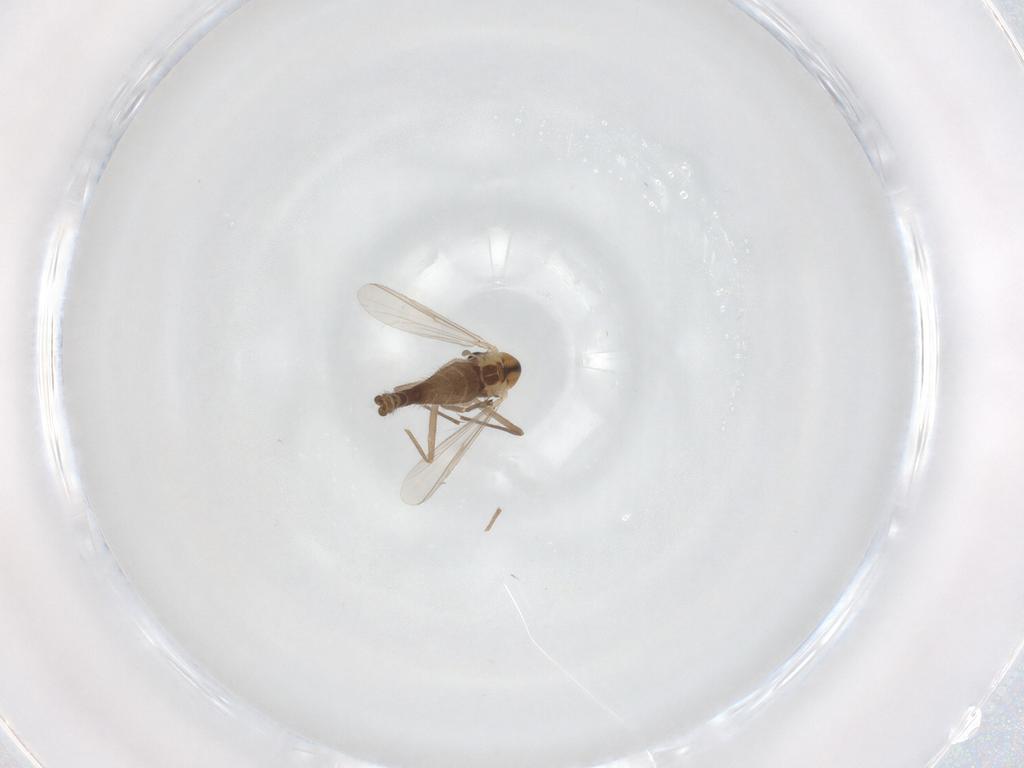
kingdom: Animalia
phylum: Arthropoda
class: Insecta
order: Diptera
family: Chironomidae
